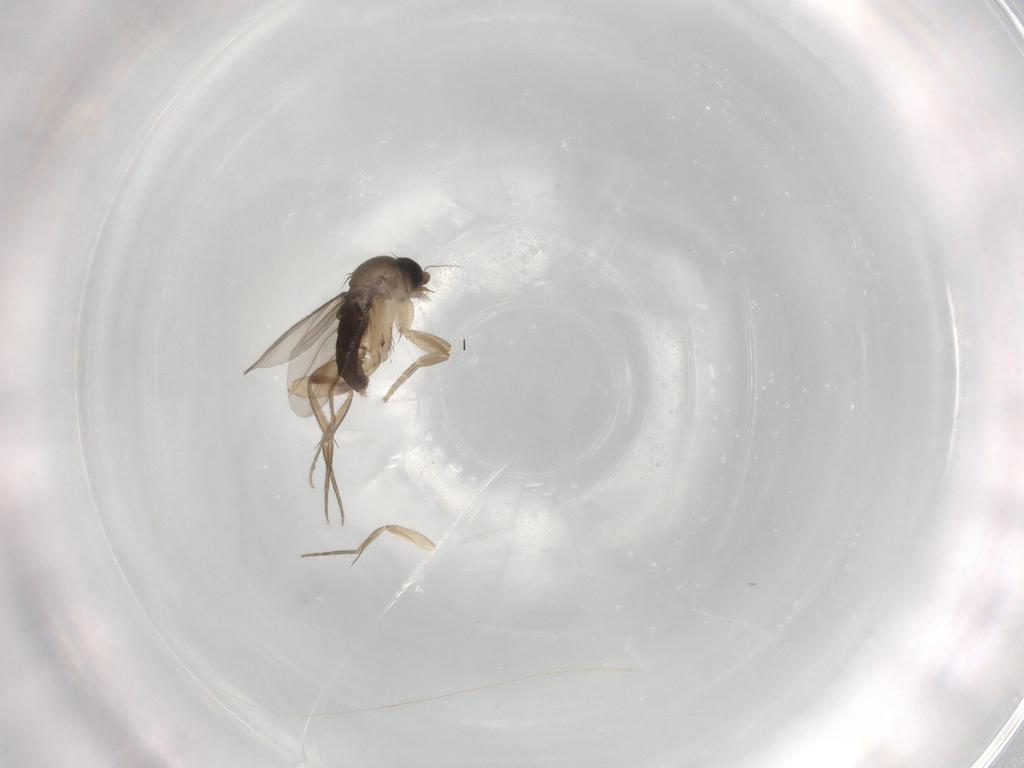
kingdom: Animalia
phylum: Arthropoda
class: Insecta
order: Diptera
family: Phoridae
